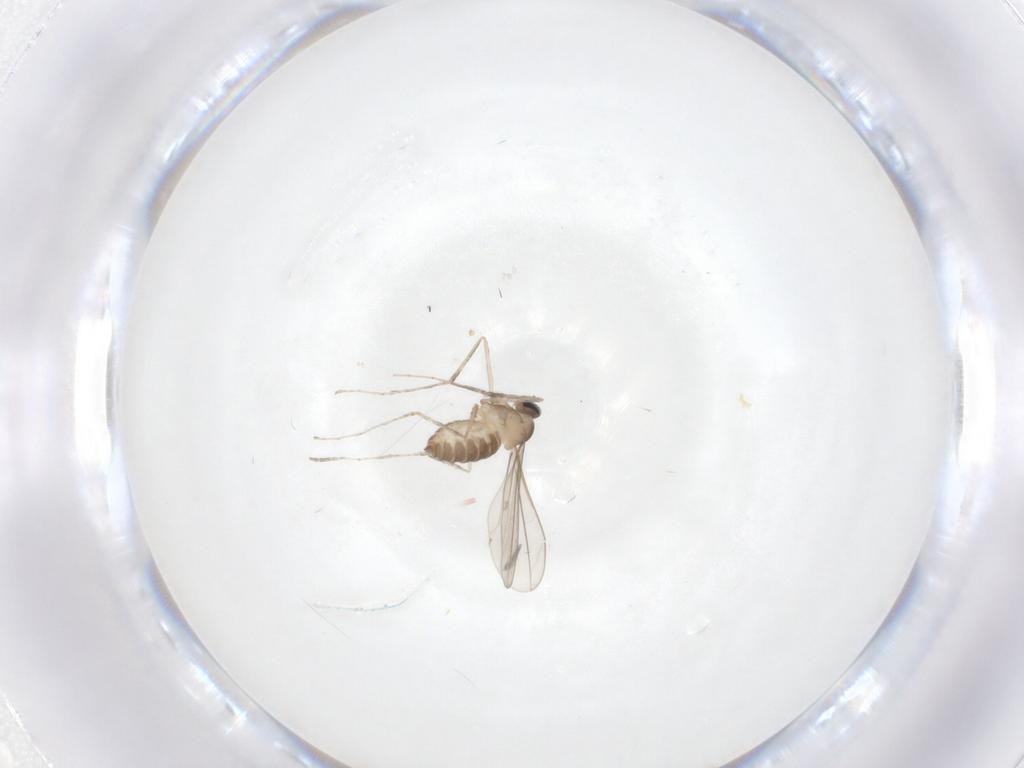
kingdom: Animalia
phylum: Arthropoda
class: Insecta
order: Diptera
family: Cecidomyiidae
